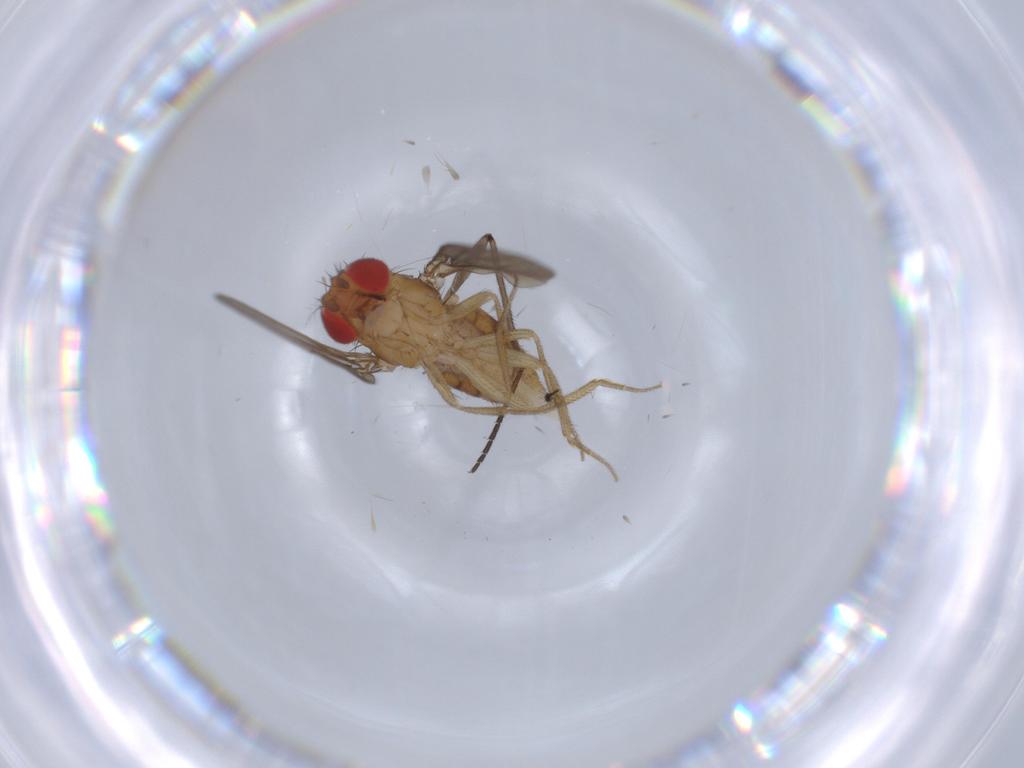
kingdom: Animalia
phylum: Arthropoda
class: Insecta
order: Diptera
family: Drosophilidae
